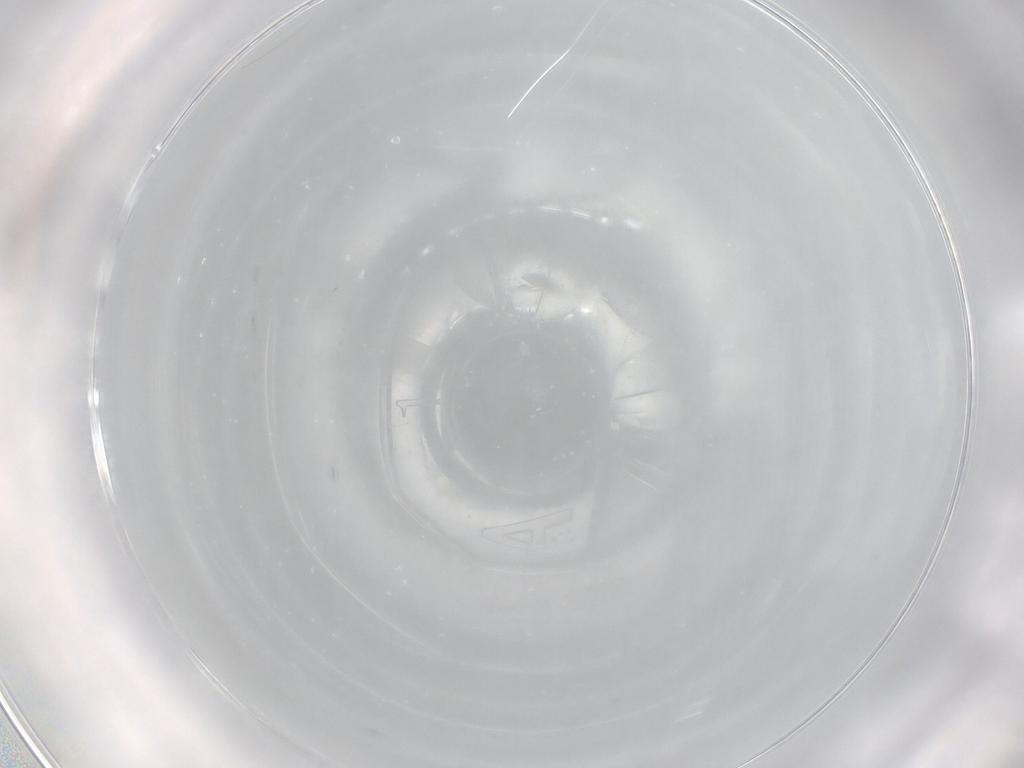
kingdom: Animalia
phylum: Arthropoda
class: Insecta
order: Diptera
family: Cecidomyiidae
